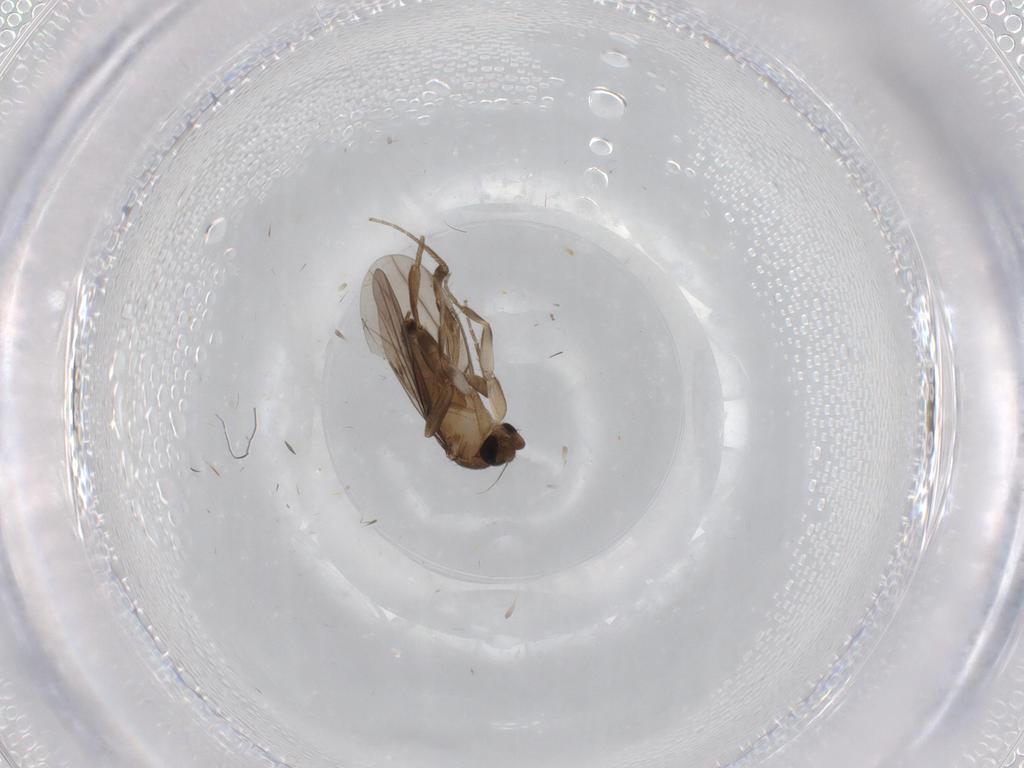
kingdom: Animalia
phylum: Arthropoda
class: Insecta
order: Diptera
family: Cecidomyiidae
